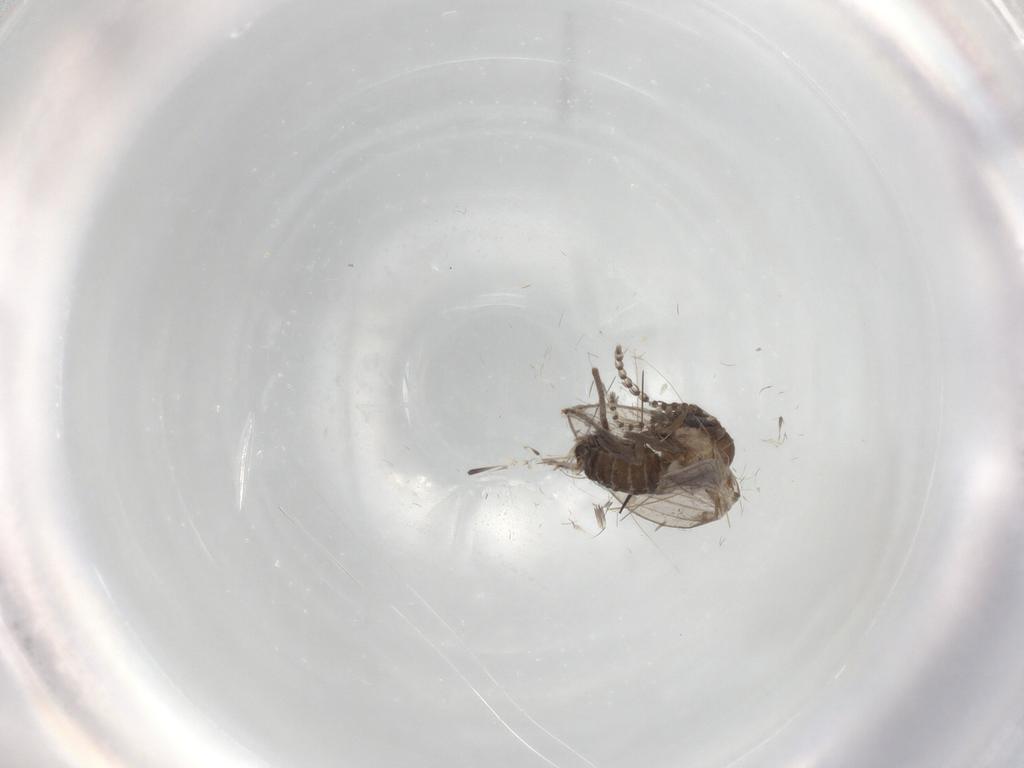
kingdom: Animalia
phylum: Arthropoda
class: Insecta
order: Diptera
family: Psychodidae
